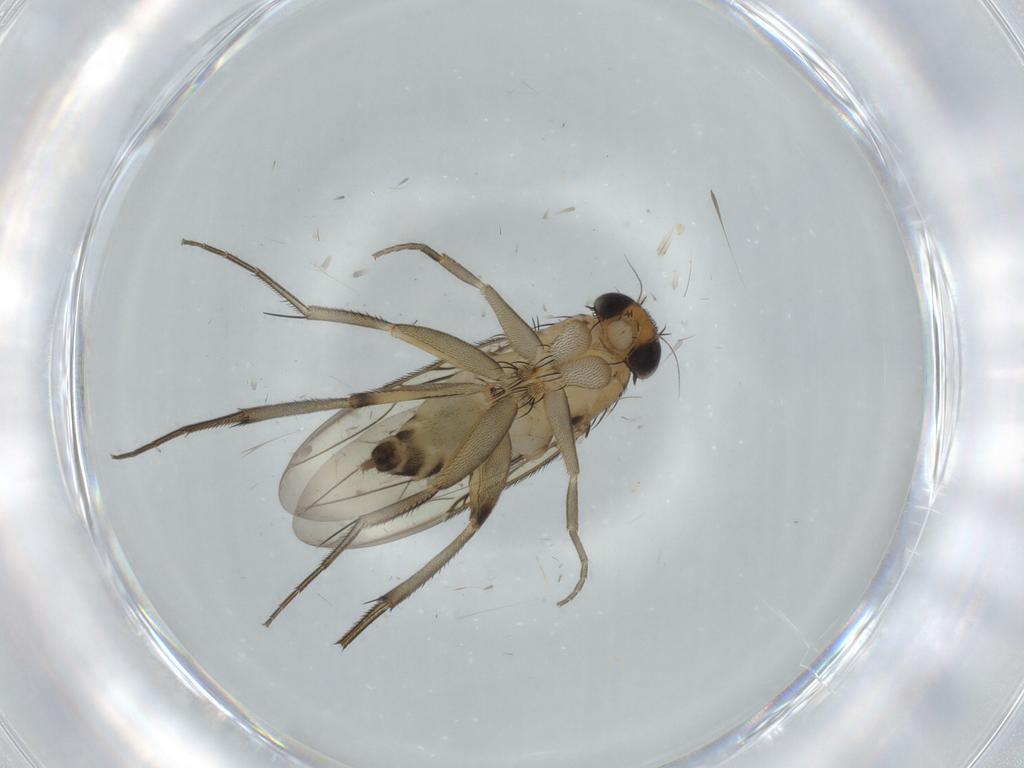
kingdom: Animalia
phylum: Arthropoda
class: Insecta
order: Diptera
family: Phoridae
